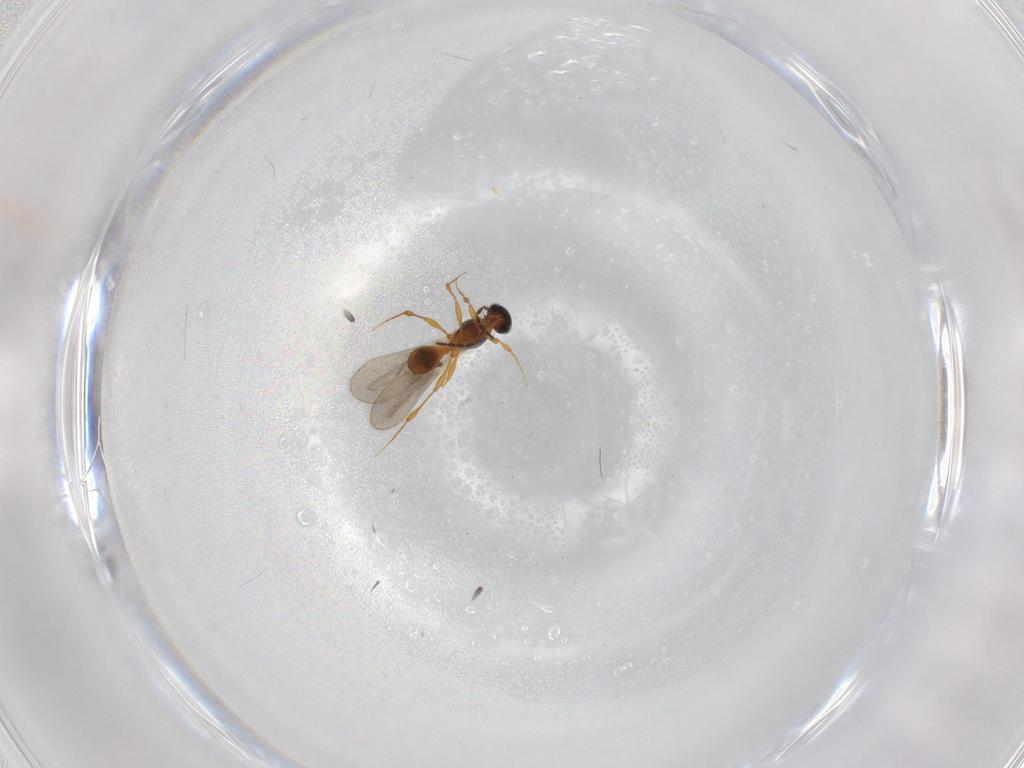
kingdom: Animalia
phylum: Arthropoda
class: Insecta
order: Hymenoptera
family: Platygastridae
